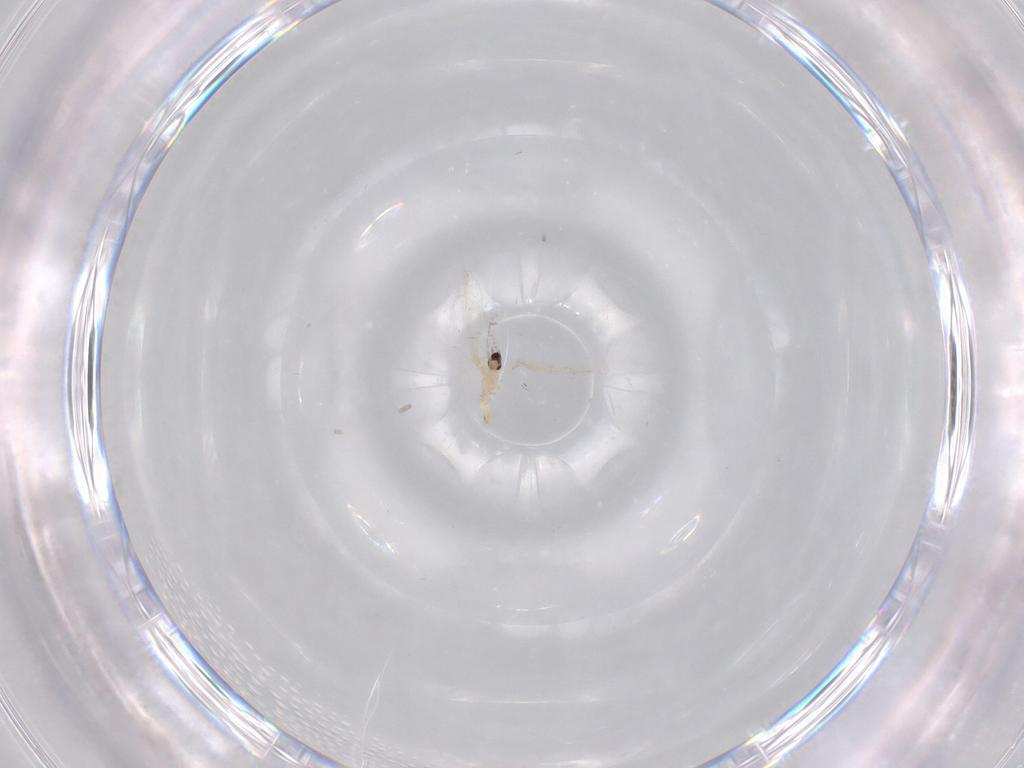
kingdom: Animalia
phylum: Arthropoda
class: Insecta
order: Diptera
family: Cecidomyiidae
